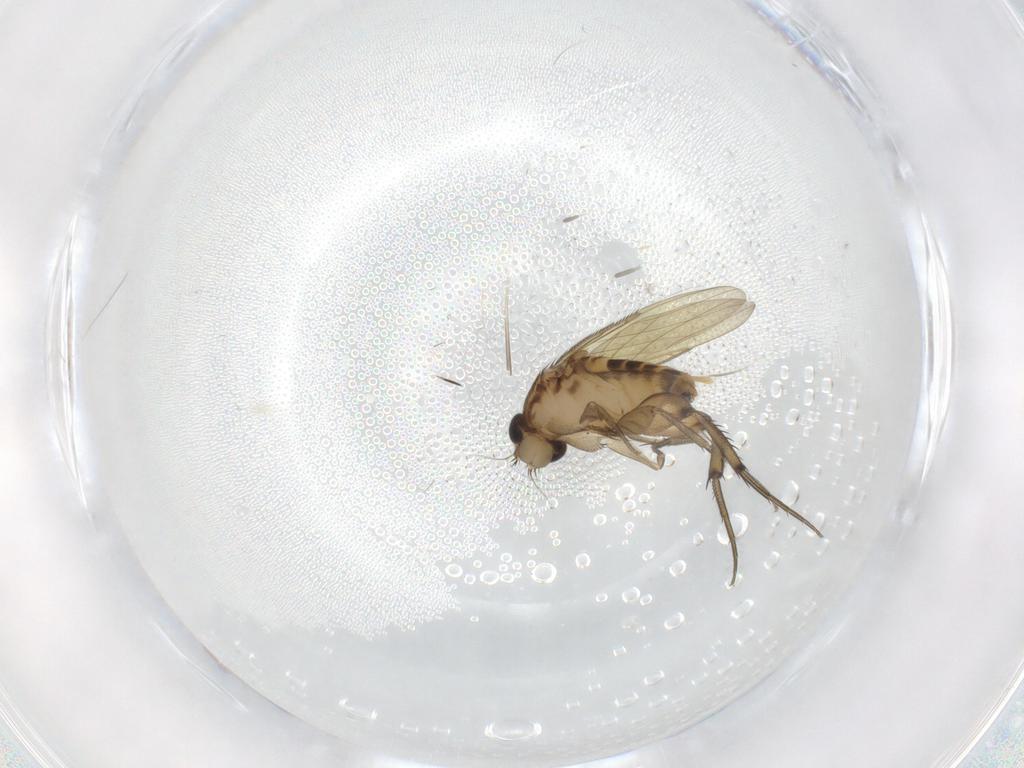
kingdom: Animalia
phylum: Arthropoda
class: Insecta
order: Diptera
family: Phoridae
